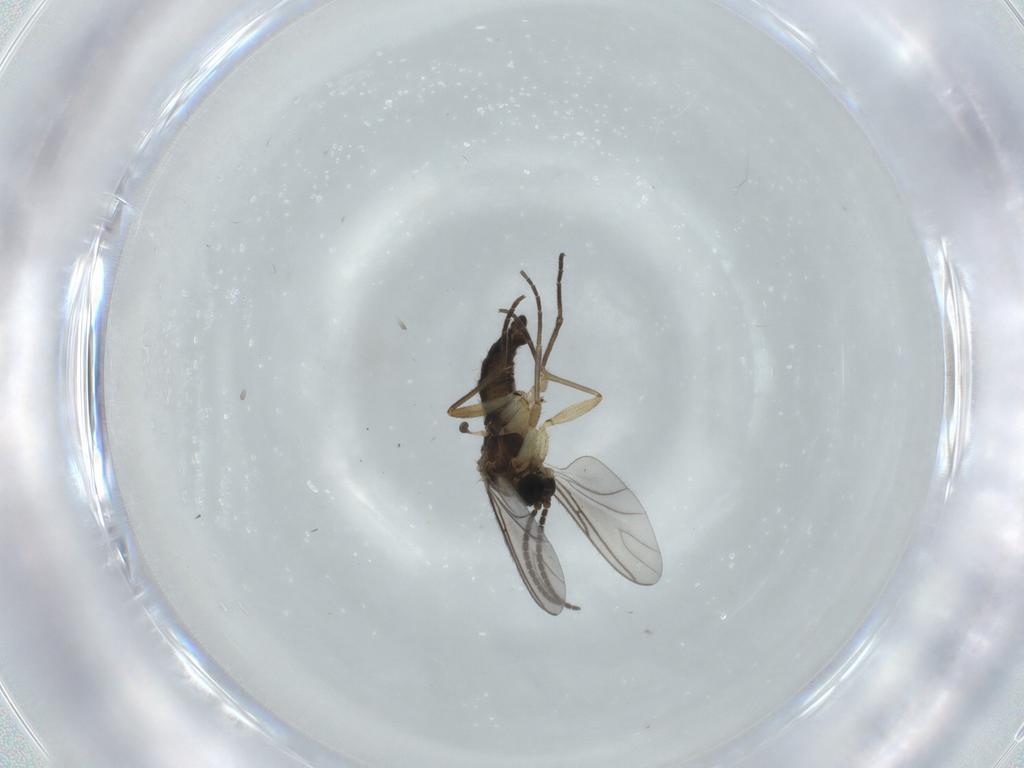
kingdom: Animalia
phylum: Arthropoda
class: Insecta
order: Diptera
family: Sciaridae
